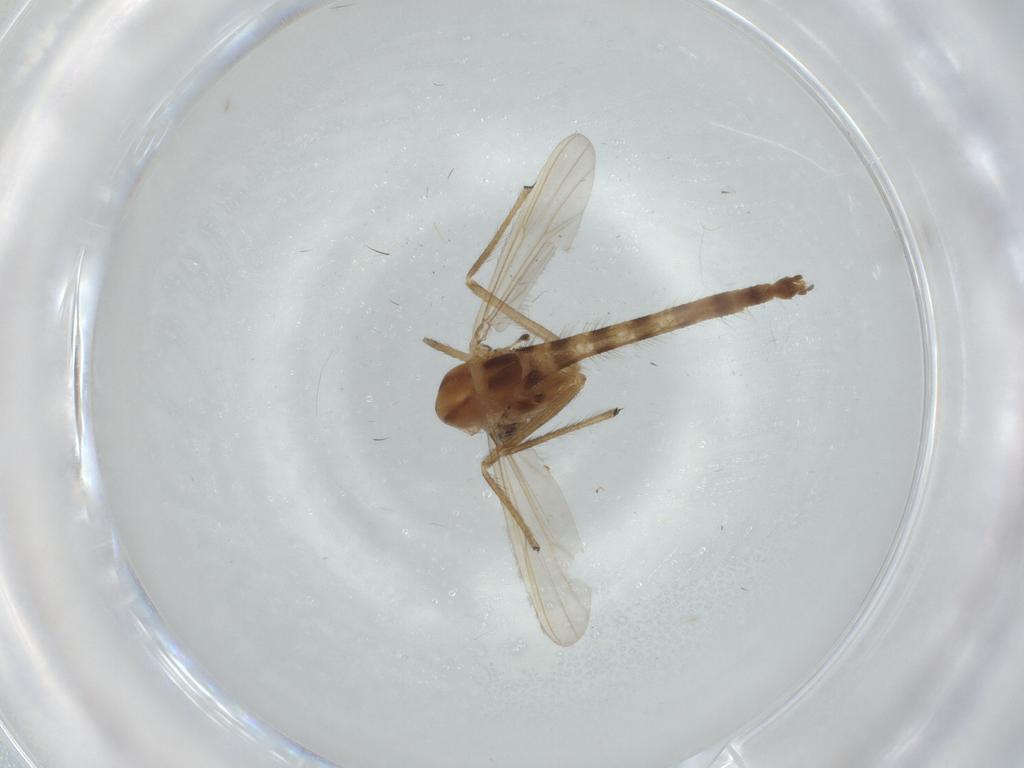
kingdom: Animalia
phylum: Arthropoda
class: Insecta
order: Diptera
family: Chironomidae
